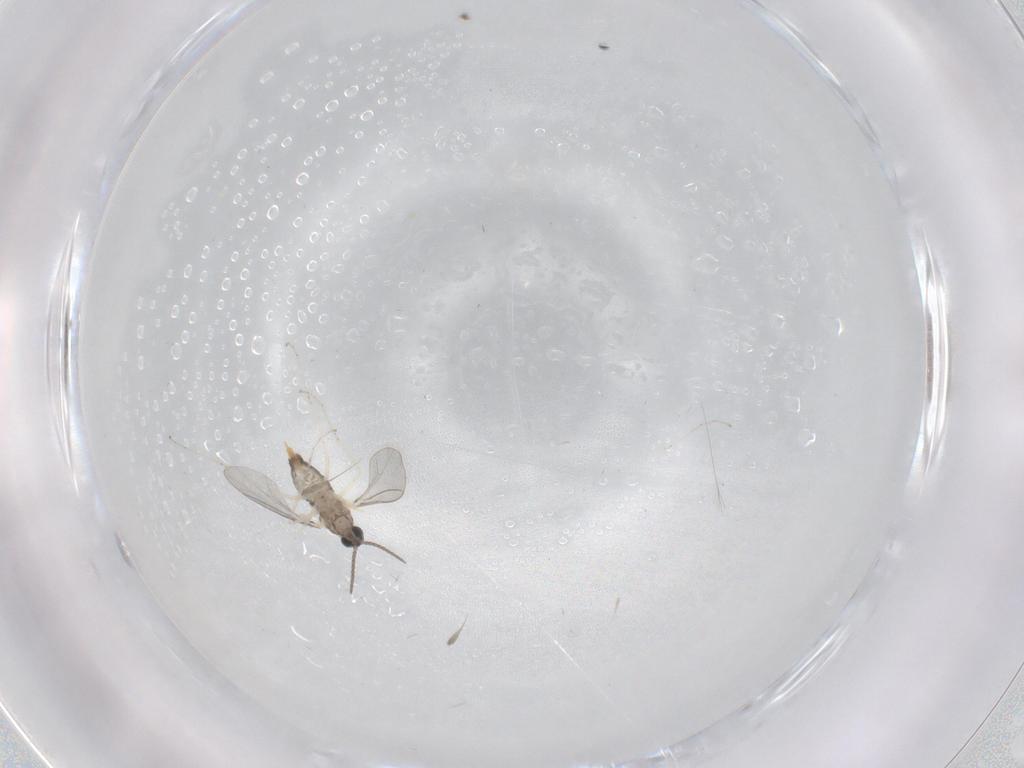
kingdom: Animalia
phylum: Arthropoda
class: Insecta
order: Diptera
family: Cecidomyiidae
